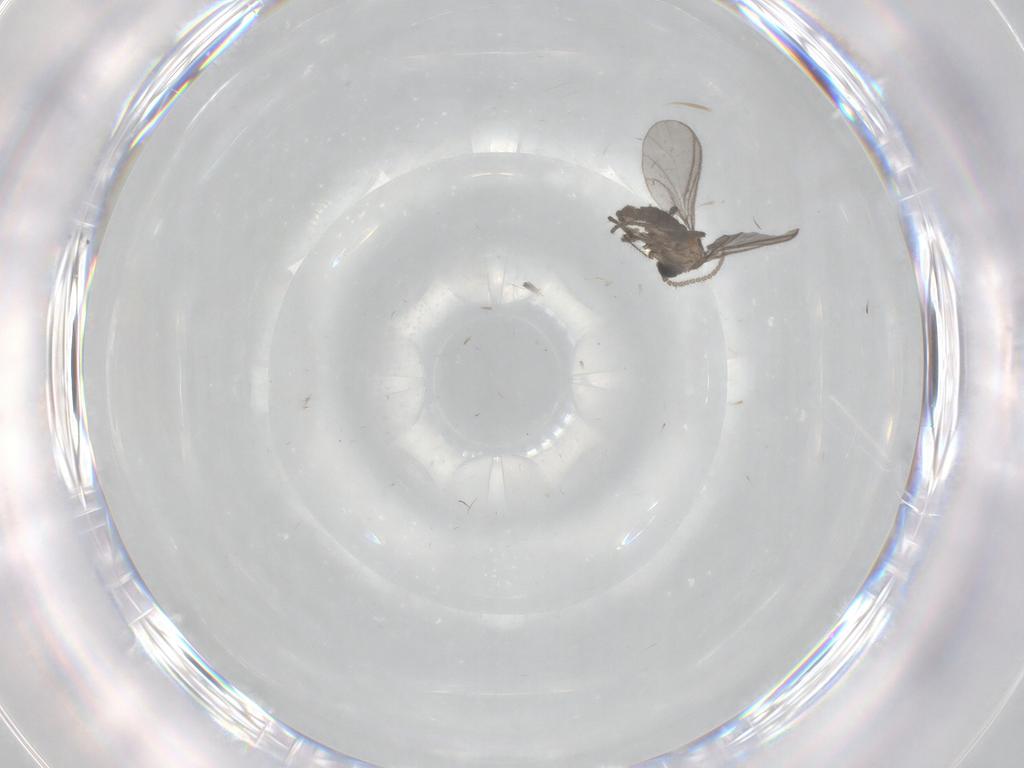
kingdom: Animalia
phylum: Arthropoda
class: Insecta
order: Diptera
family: Sciaridae
